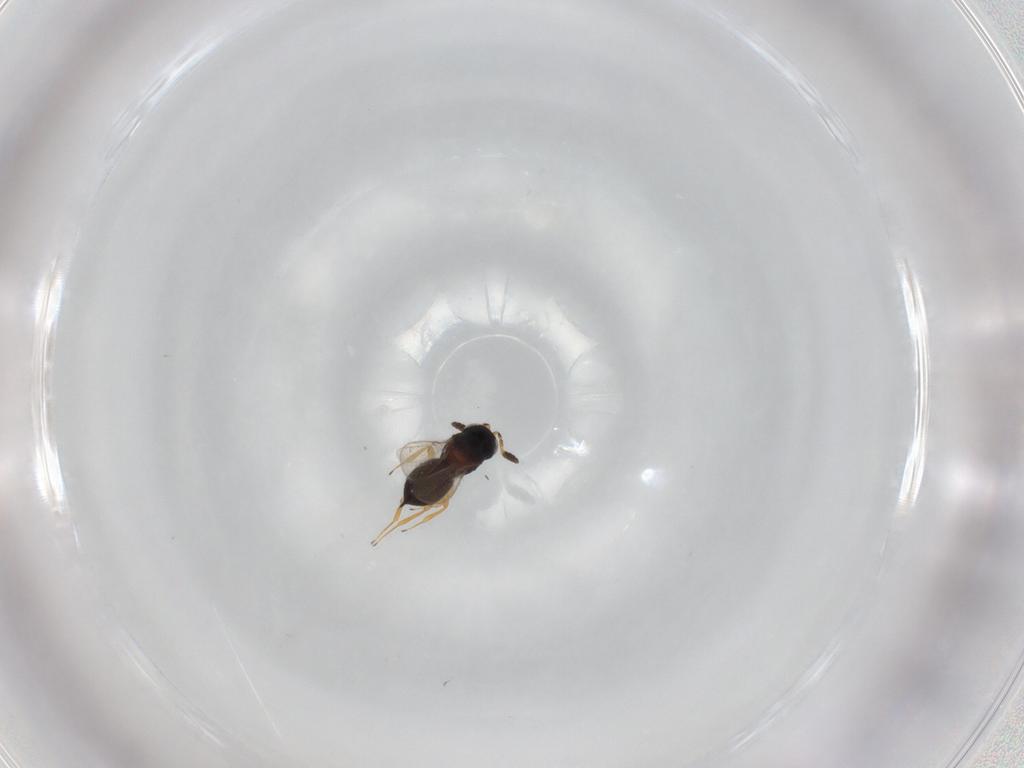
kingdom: Animalia
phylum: Arthropoda
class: Insecta
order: Hymenoptera
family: Scelionidae
